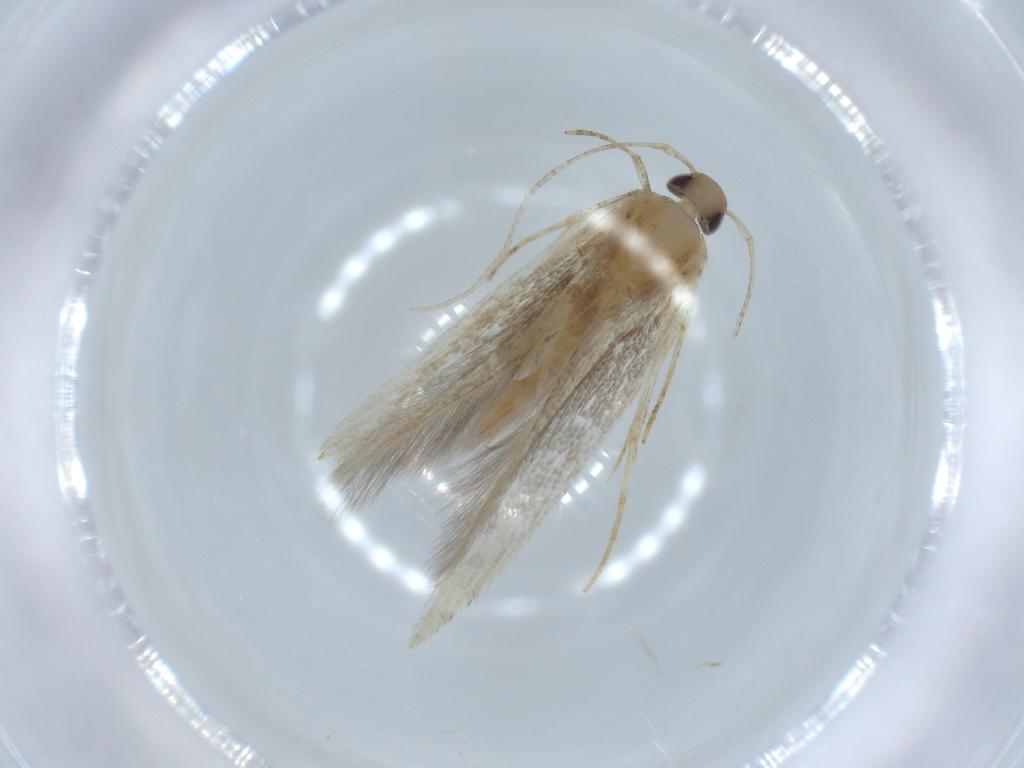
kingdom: Animalia
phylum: Arthropoda
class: Insecta
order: Lepidoptera
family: Cosmopterigidae
